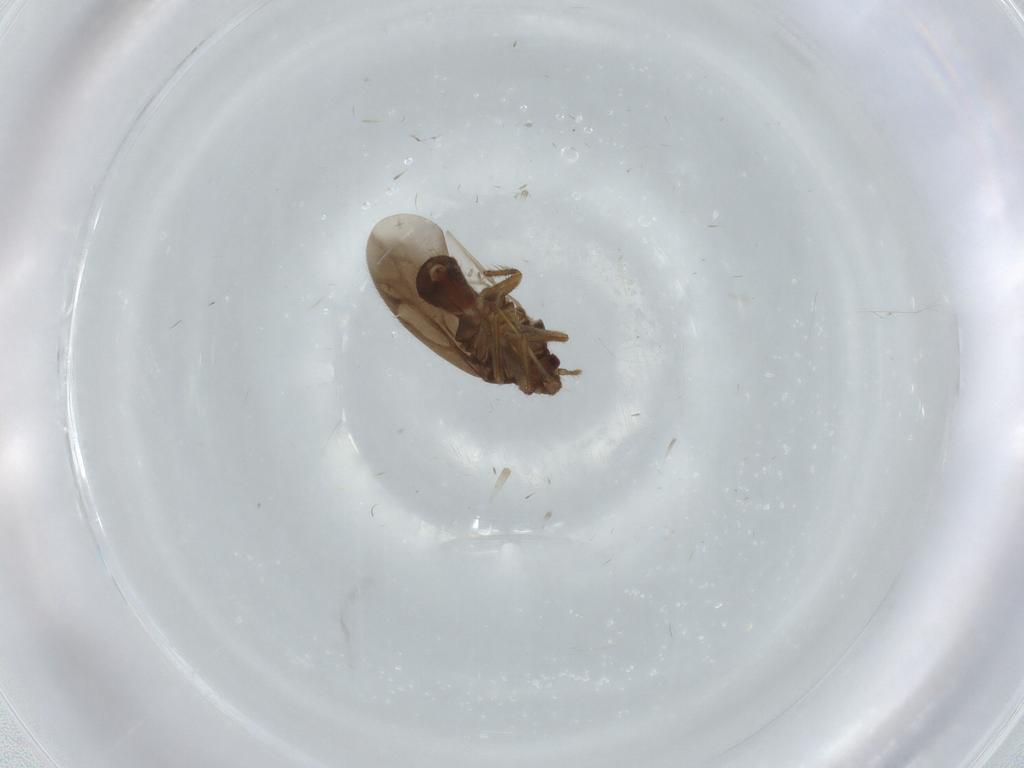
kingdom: Animalia
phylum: Arthropoda
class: Insecta
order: Hemiptera
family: Ceratocombidae
